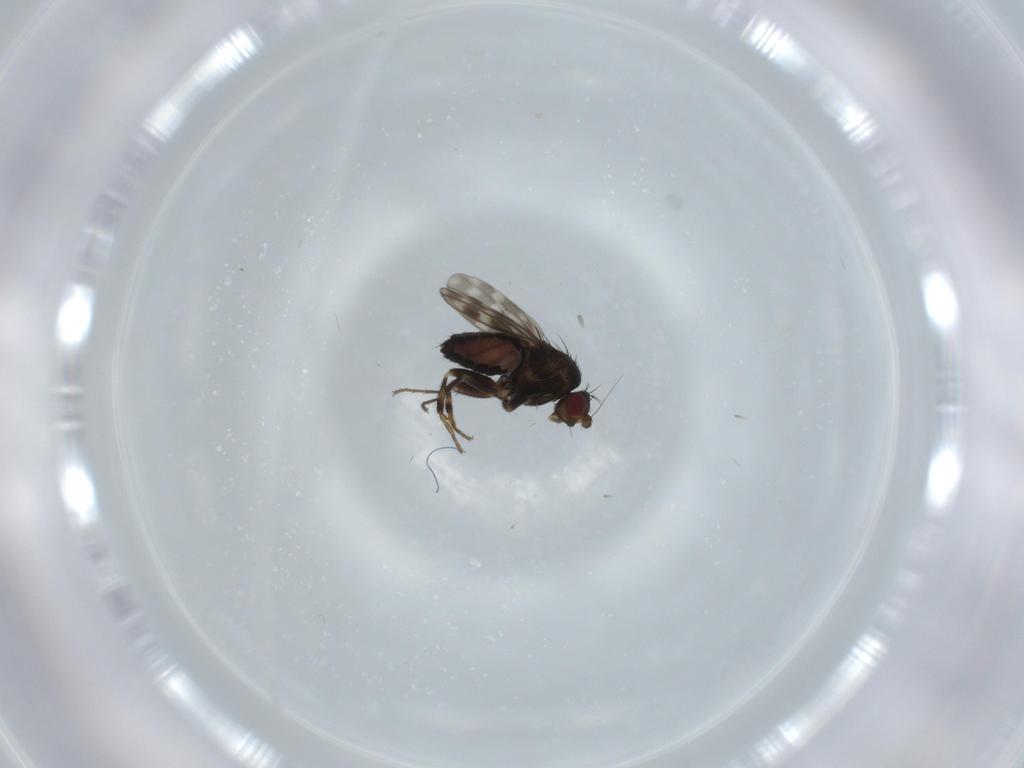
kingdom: Animalia
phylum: Arthropoda
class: Insecta
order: Diptera
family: Sphaeroceridae
